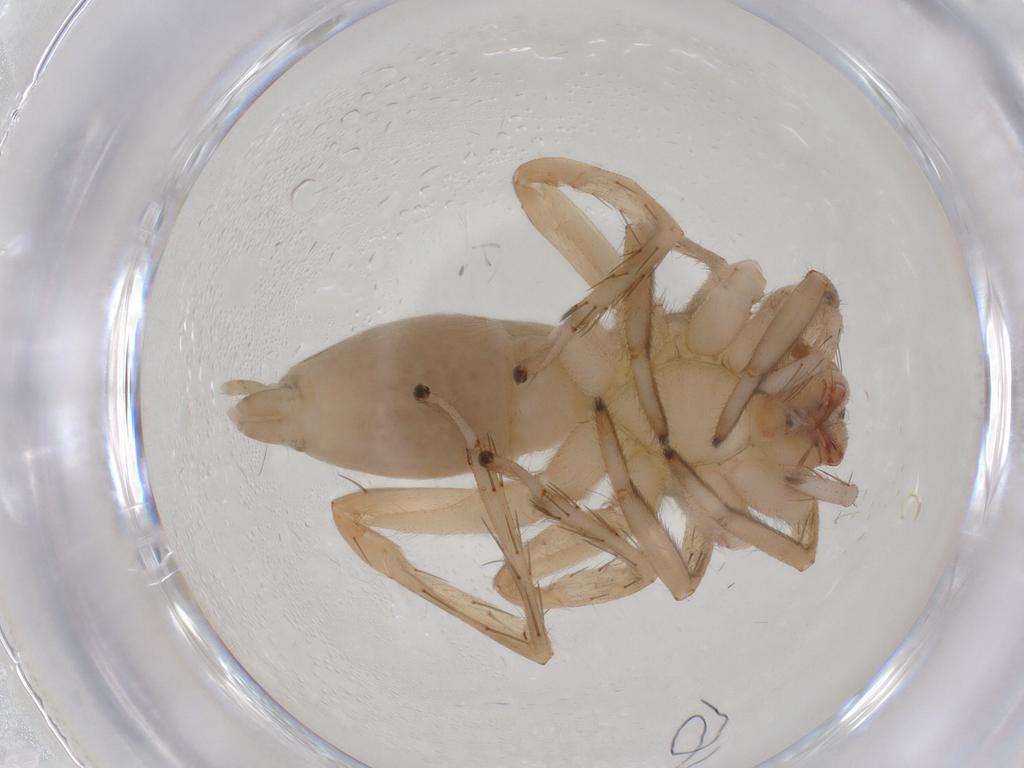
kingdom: Animalia
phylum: Arthropoda
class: Arachnida
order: Araneae
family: Clubionidae
